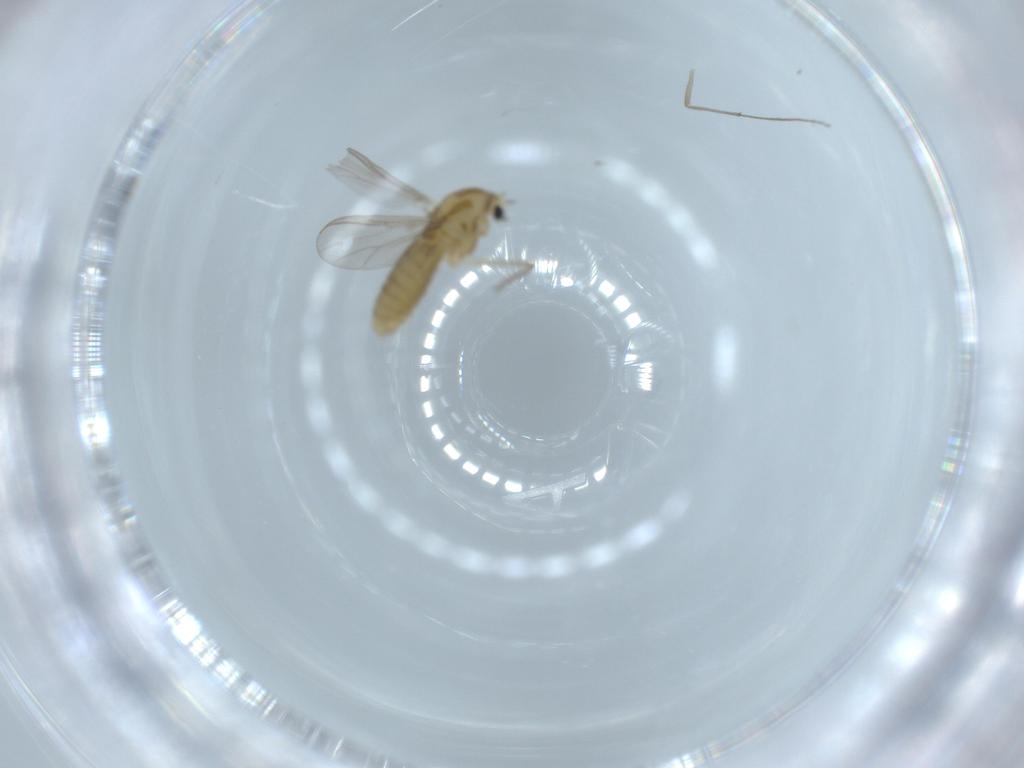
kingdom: Animalia
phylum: Arthropoda
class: Insecta
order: Diptera
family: Chironomidae
